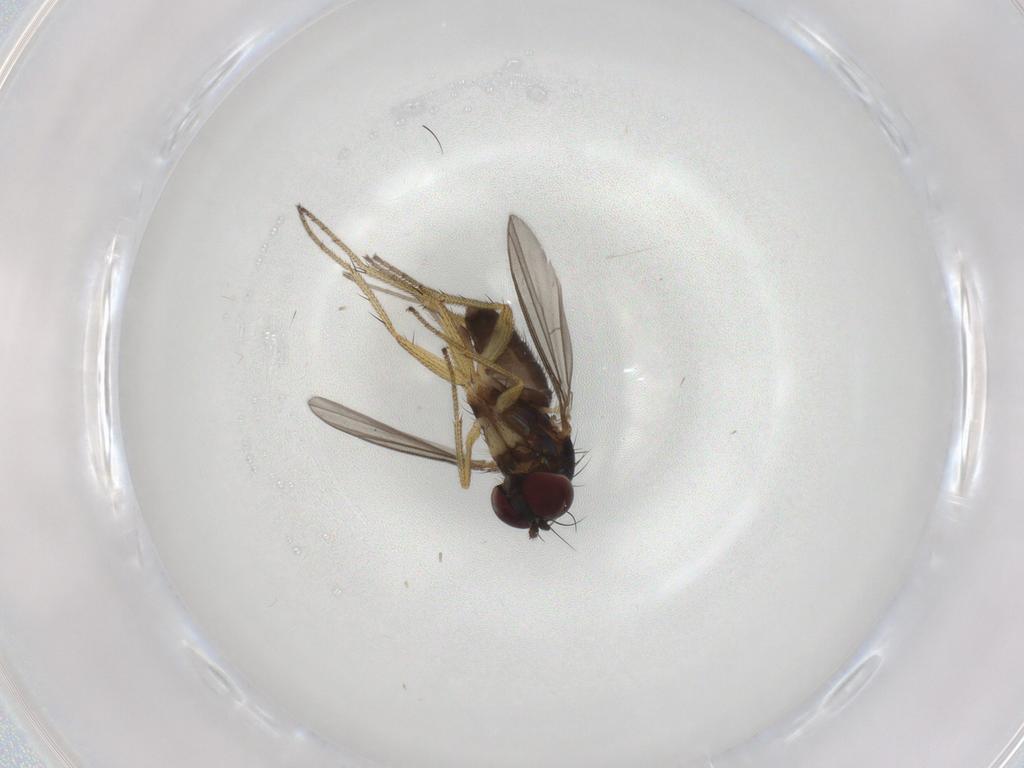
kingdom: Animalia
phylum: Arthropoda
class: Insecta
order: Diptera
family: Chironomidae
